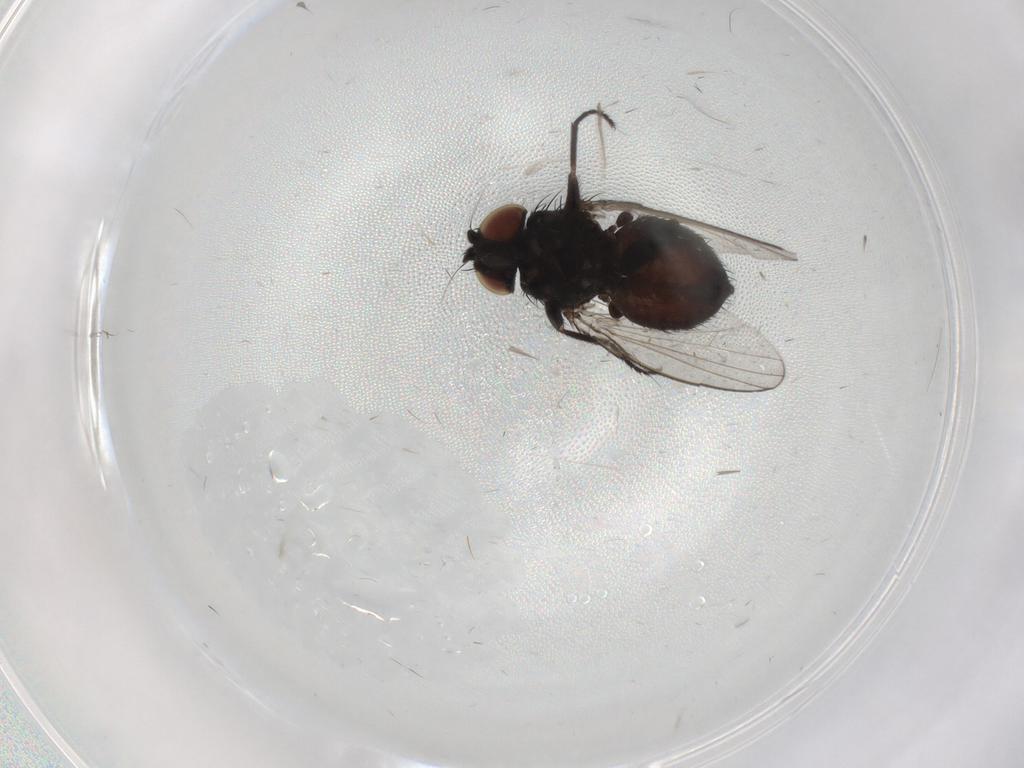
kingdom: Animalia
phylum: Arthropoda
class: Insecta
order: Diptera
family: Milichiidae
